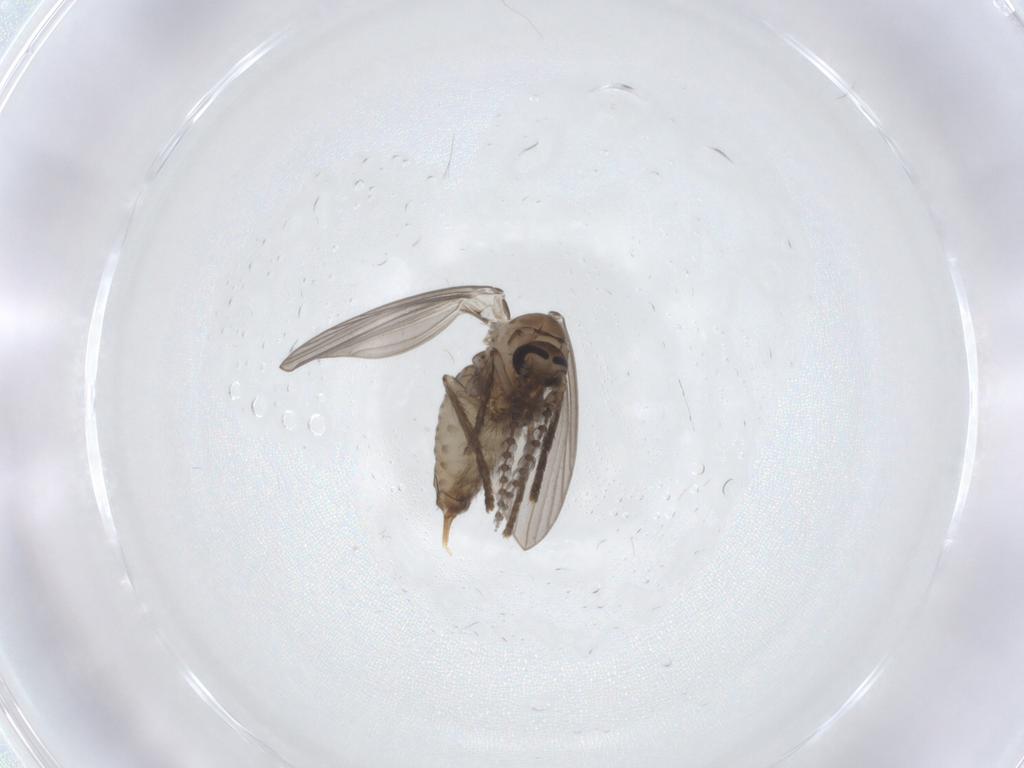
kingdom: Animalia
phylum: Arthropoda
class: Insecta
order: Diptera
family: Psychodidae
